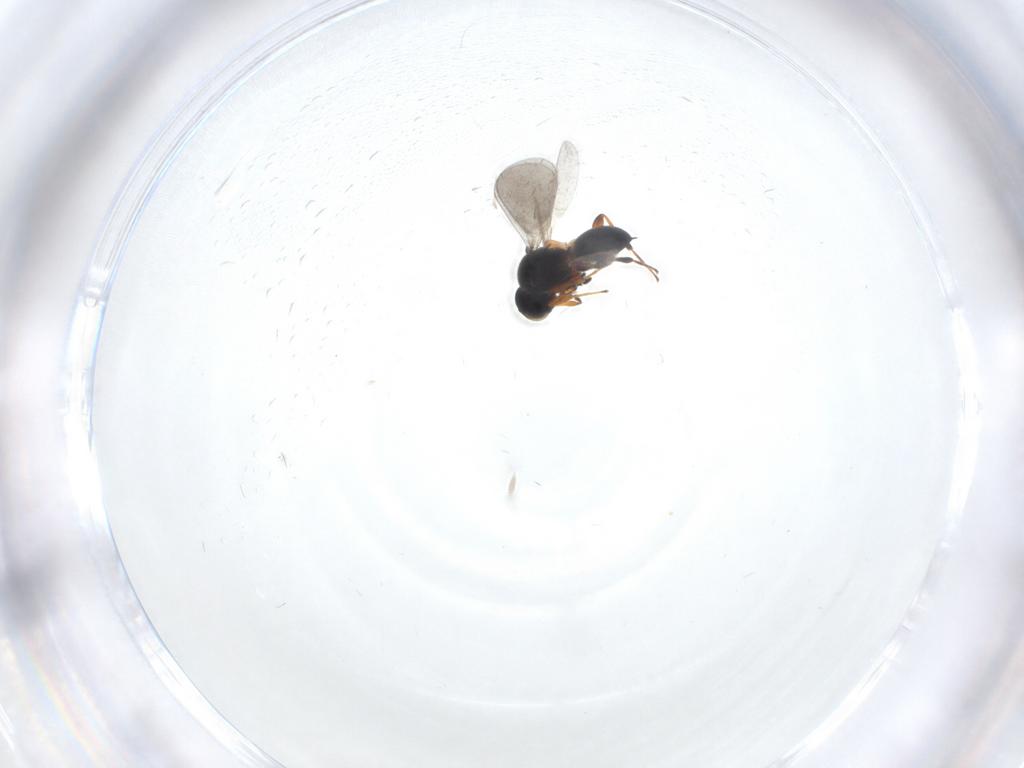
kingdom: Animalia
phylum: Arthropoda
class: Insecta
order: Hymenoptera
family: Platygastridae
